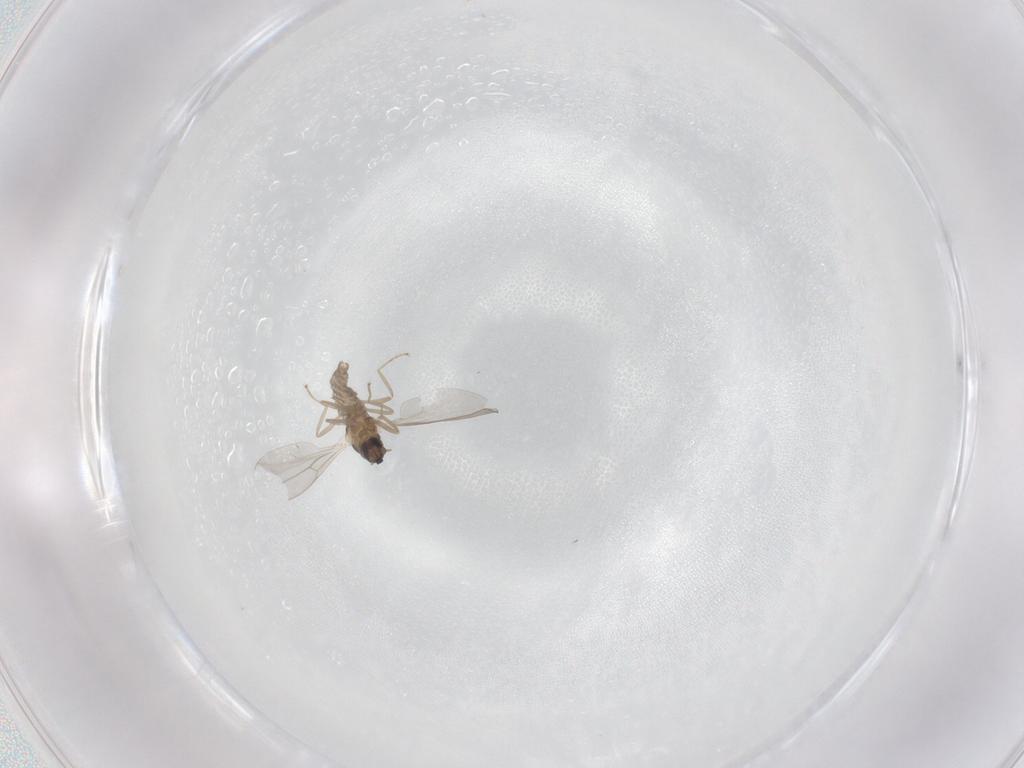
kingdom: Animalia
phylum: Arthropoda
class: Insecta
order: Diptera
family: Cecidomyiidae
